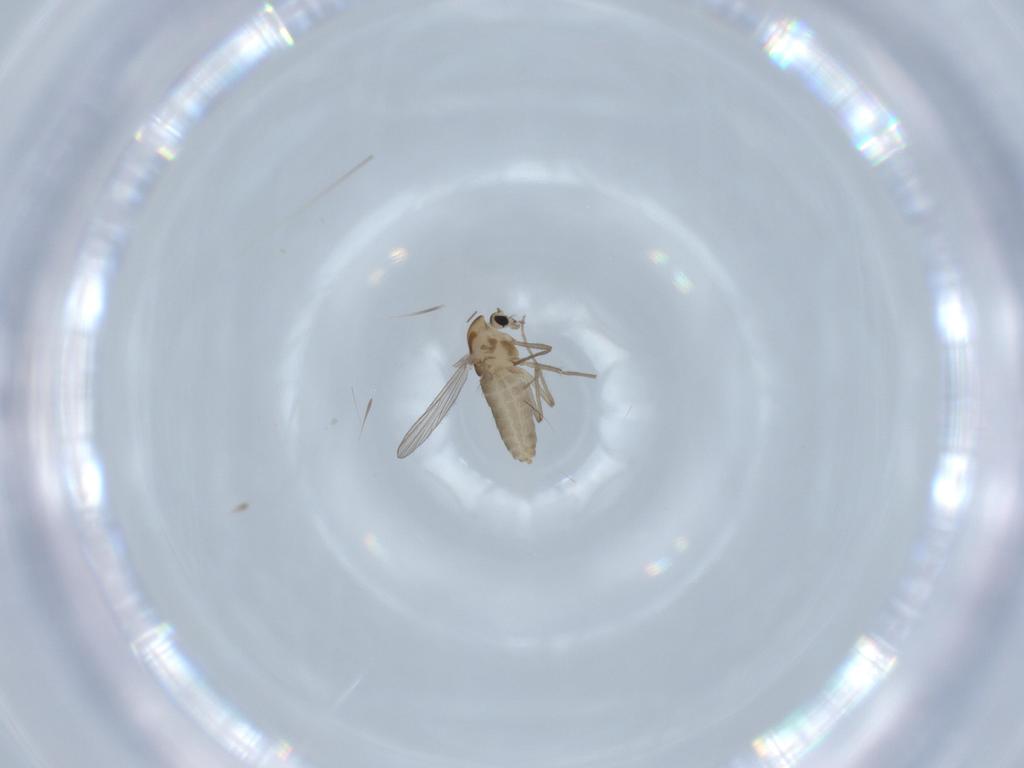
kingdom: Animalia
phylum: Arthropoda
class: Insecta
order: Diptera
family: Chironomidae
